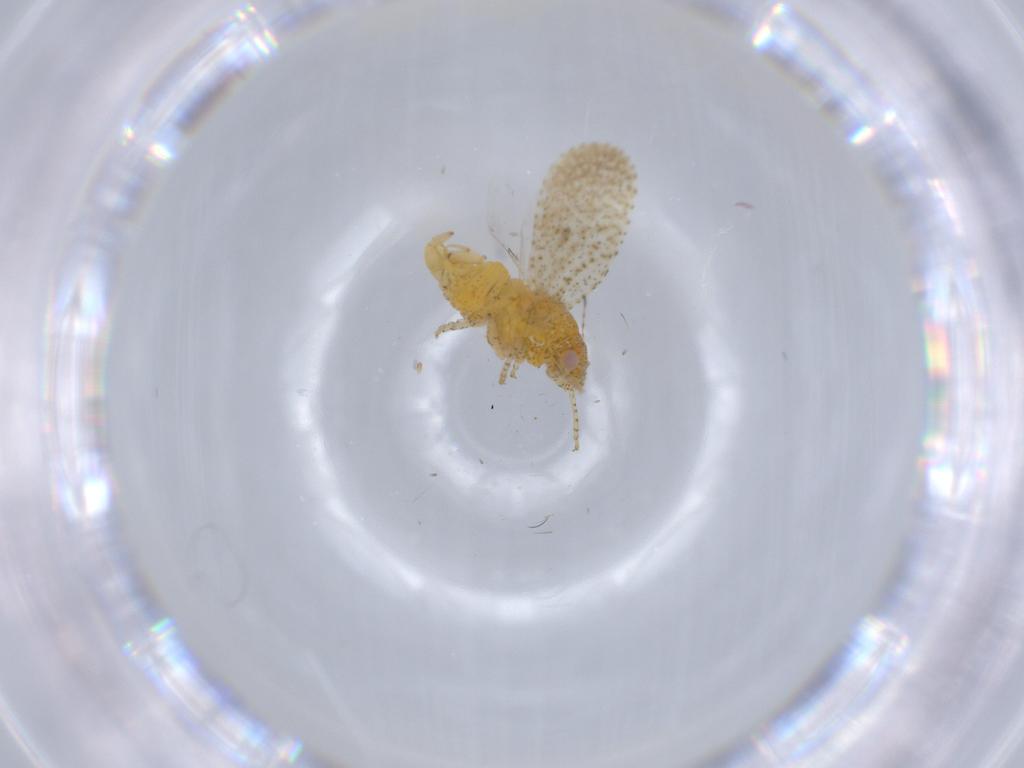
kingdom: Animalia
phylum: Arthropoda
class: Insecta
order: Hemiptera
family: Psyllidae
